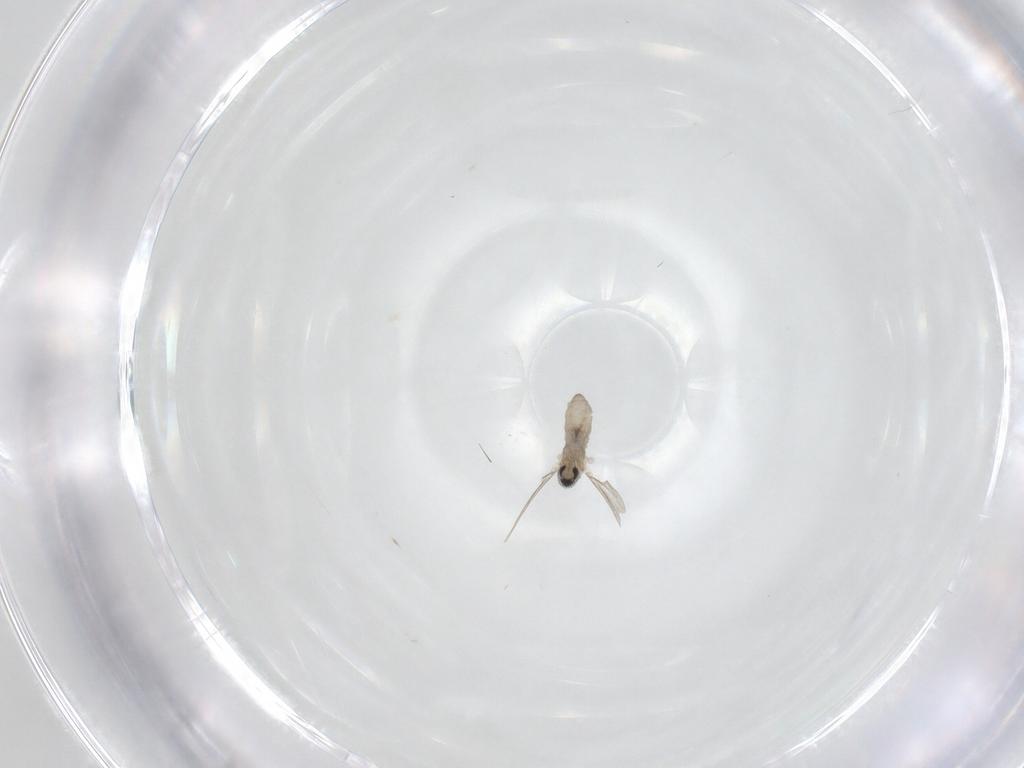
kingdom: Animalia
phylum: Arthropoda
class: Insecta
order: Diptera
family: Cecidomyiidae
